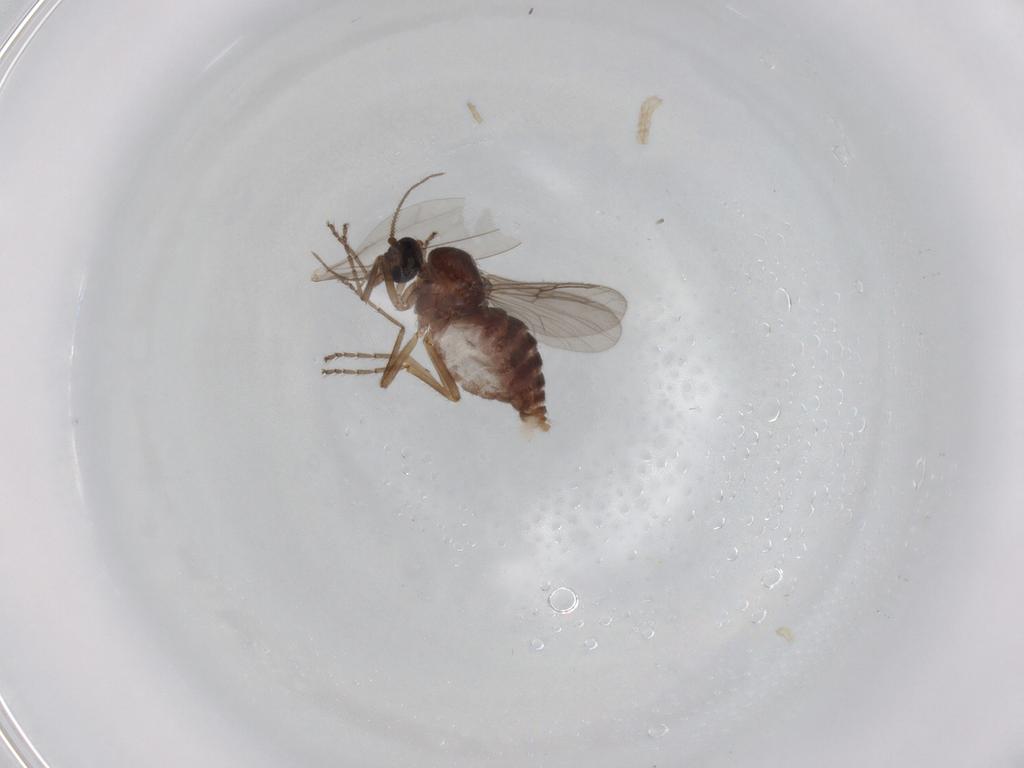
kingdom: Animalia
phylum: Arthropoda
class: Insecta
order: Diptera
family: Ceratopogonidae
